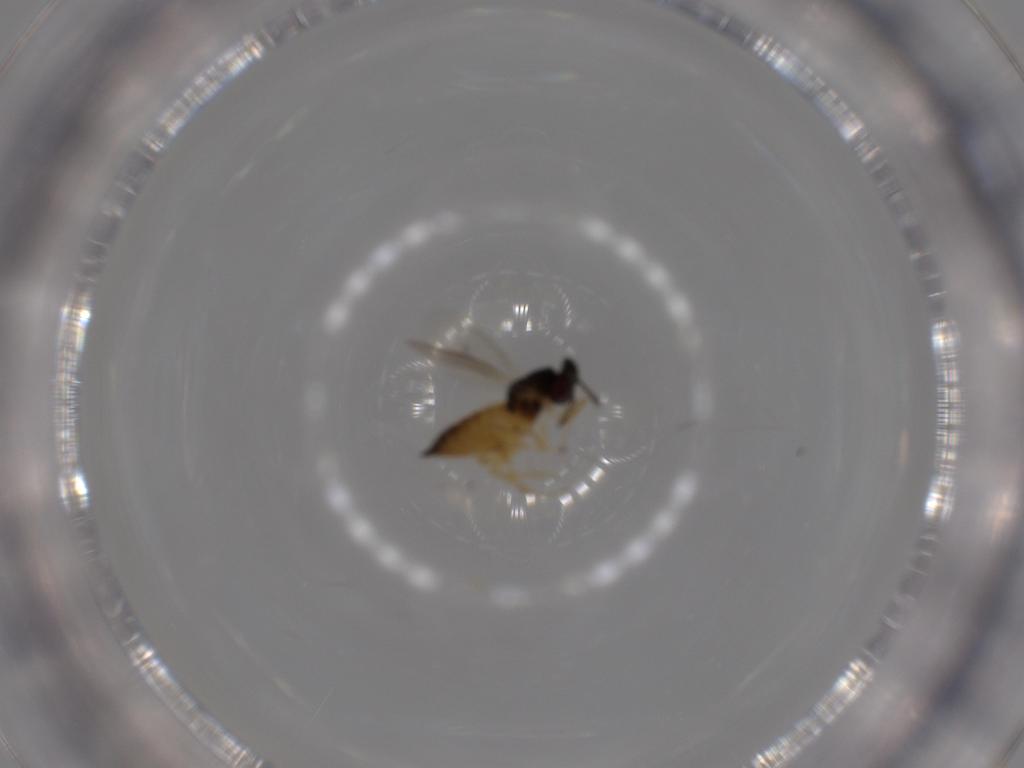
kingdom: Animalia
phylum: Arthropoda
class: Insecta
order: Hymenoptera
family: Eulophidae
